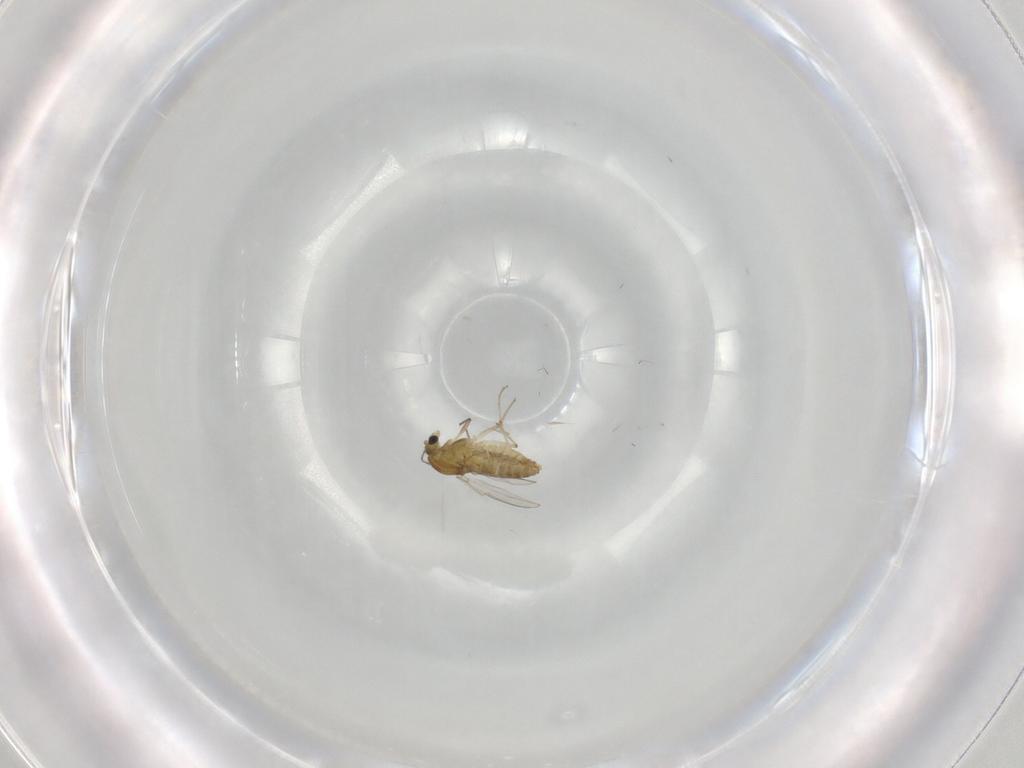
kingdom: Animalia
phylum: Arthropoda
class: Insecta
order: Diptera
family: Chironomidae
